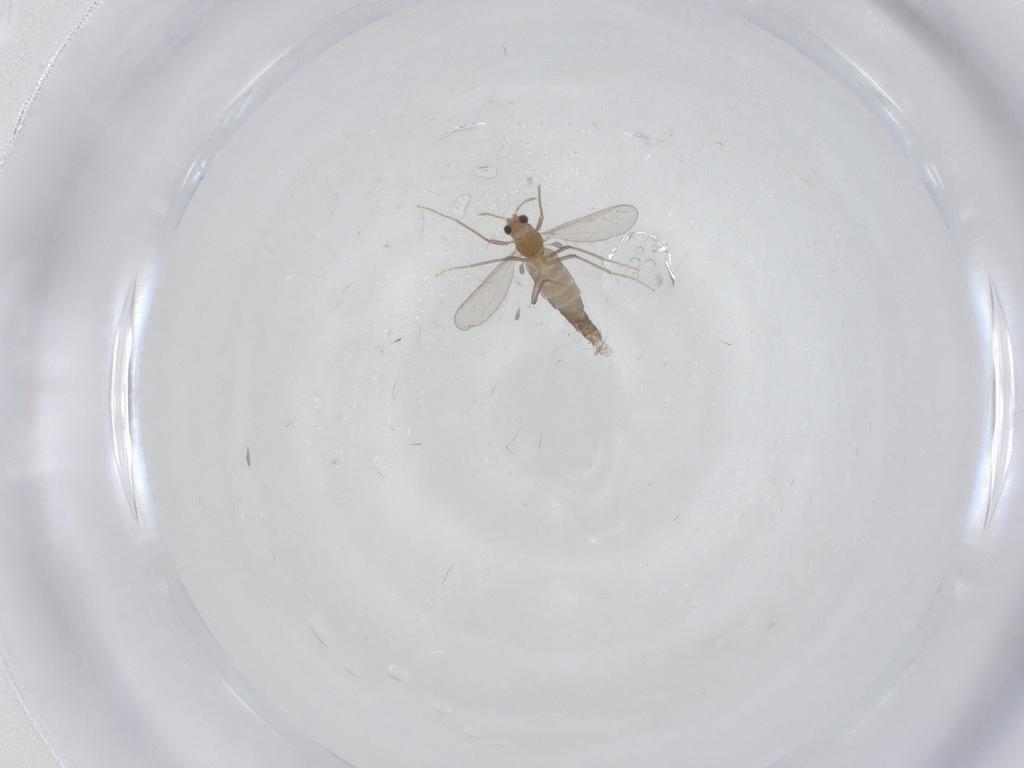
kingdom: Animalia
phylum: Arthropoda
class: Insecta
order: Diptera
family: Chironomidae
